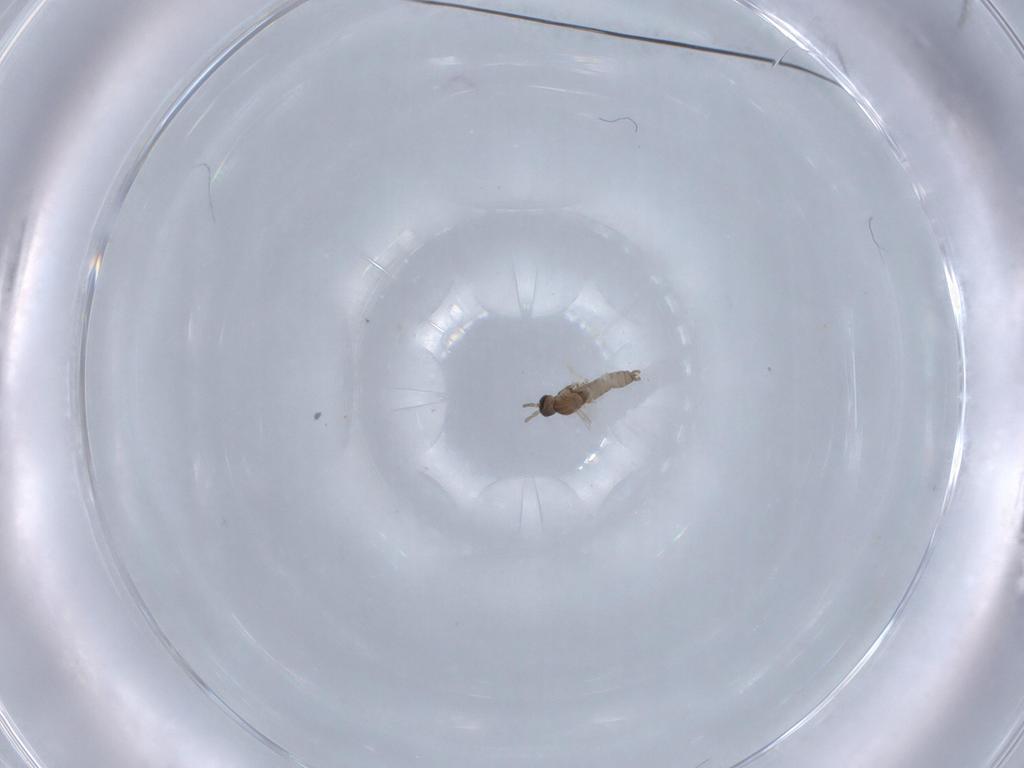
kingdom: Animalia
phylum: Arthropoda
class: Insecta
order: Diptera
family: Cecidomyiidae
